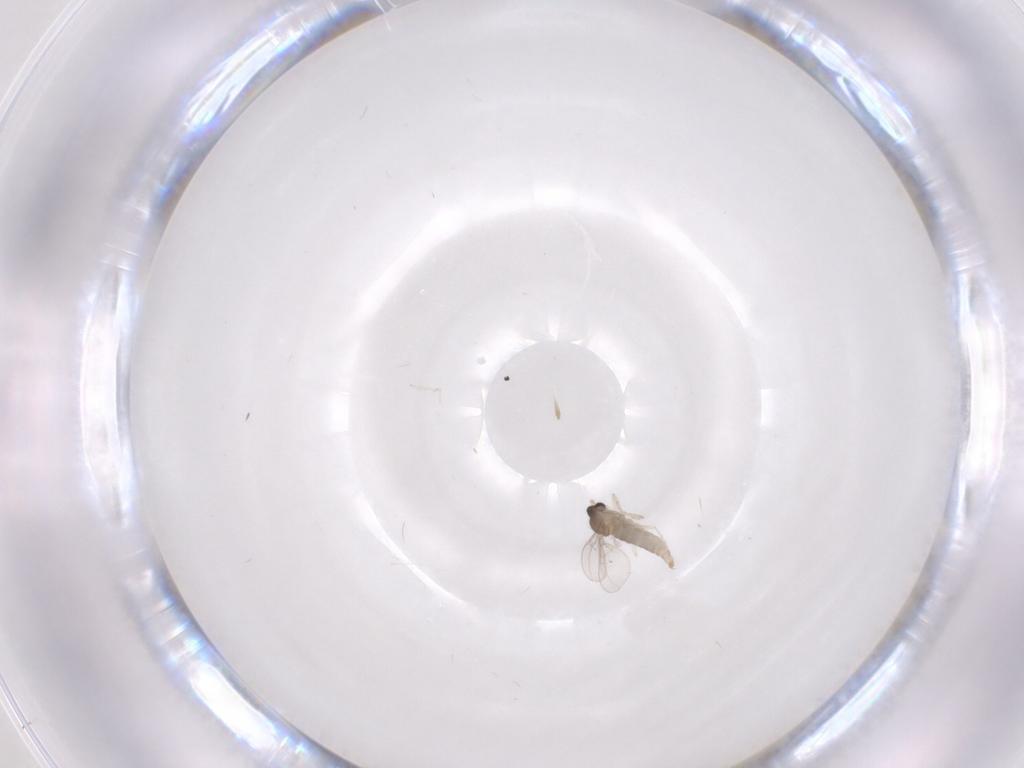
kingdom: Animalia
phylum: Arthropoda
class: Insecta
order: Diptera
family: Cecidomyiidae
